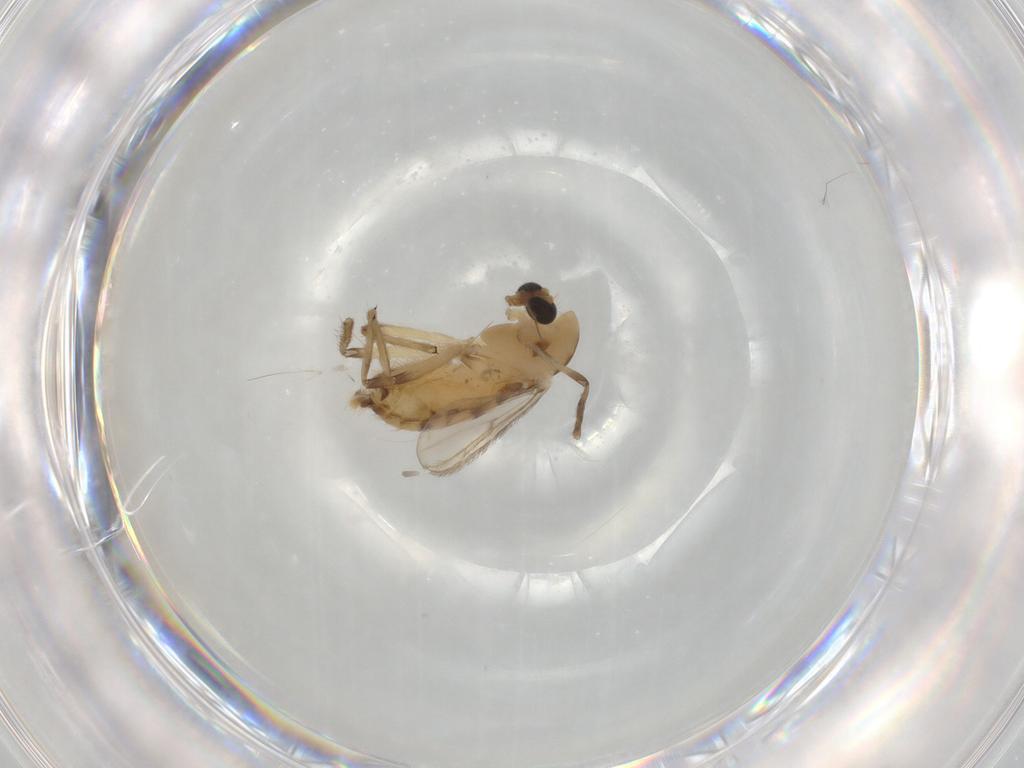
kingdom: Animalia
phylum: Arthropoda
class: Insecta
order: Diptera
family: Chironomidae
